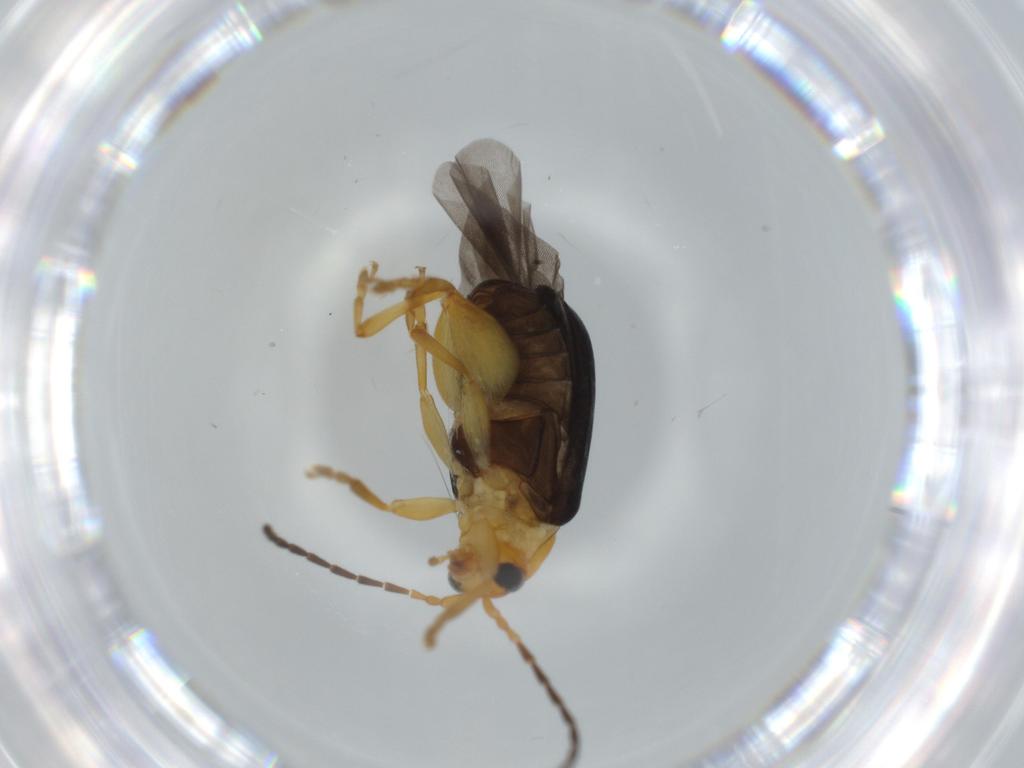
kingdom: Animalia
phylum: Arthropoda
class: Insecta
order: Coleoptera
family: Chrysomelidae
